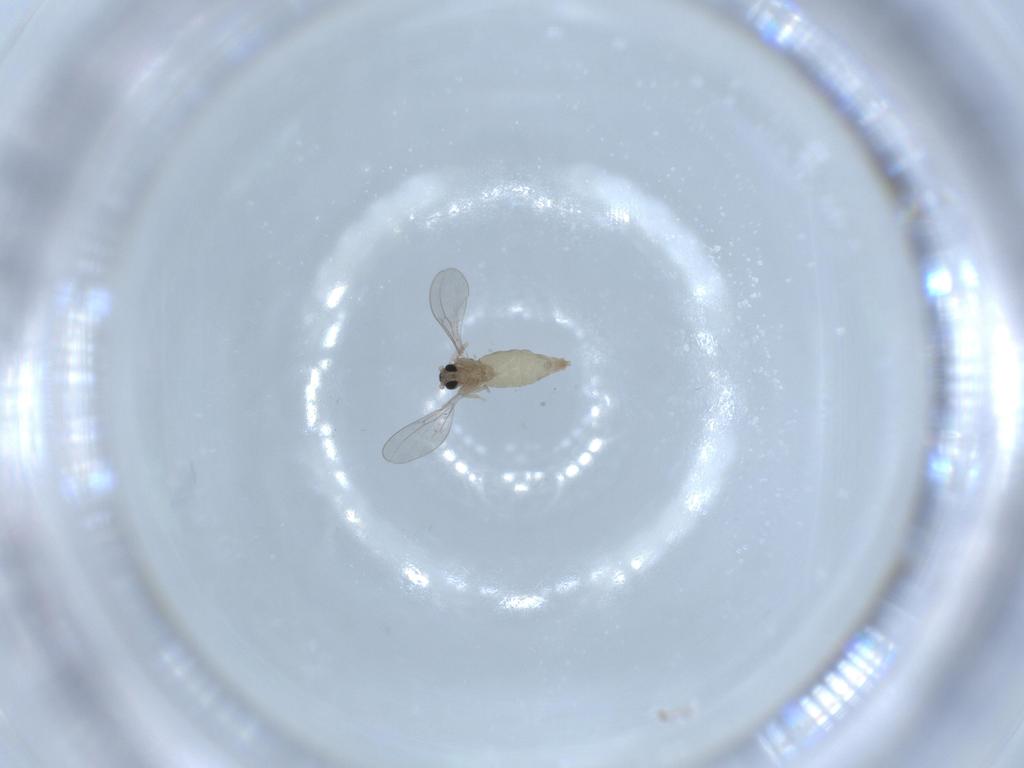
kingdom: Animalia
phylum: Arthropoda
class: Insecta
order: Diptera
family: Cecidomyiidae
